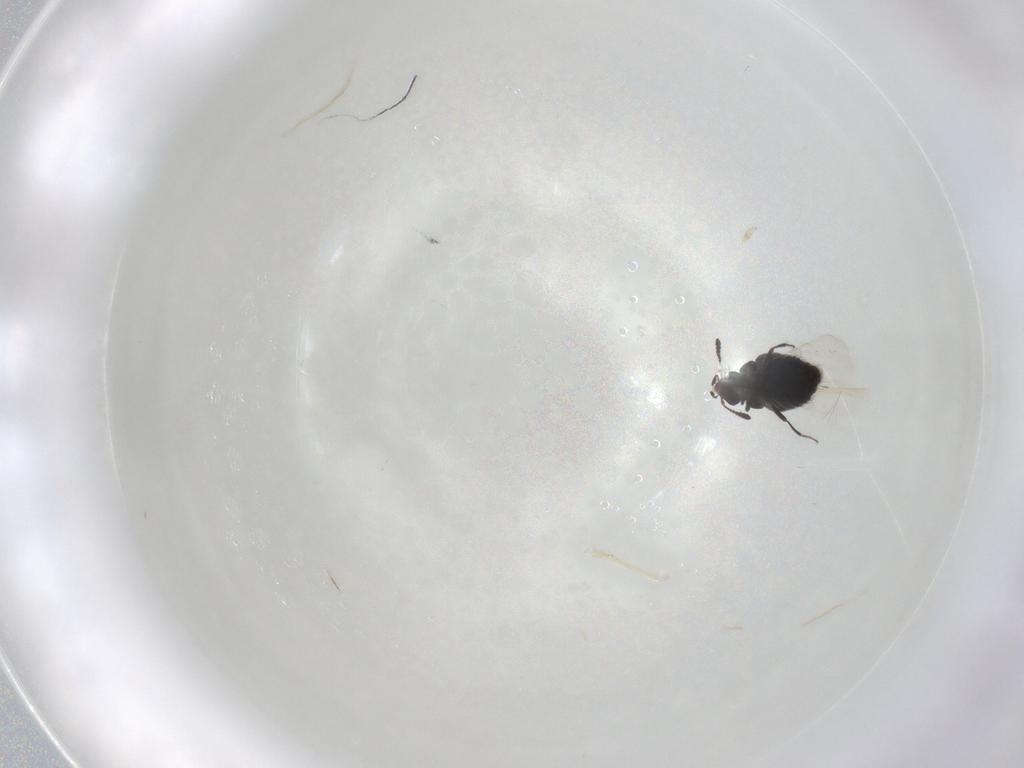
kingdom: Animalia
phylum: Arthropoda
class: Insecta
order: Coleoptera
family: Staphylinidae
